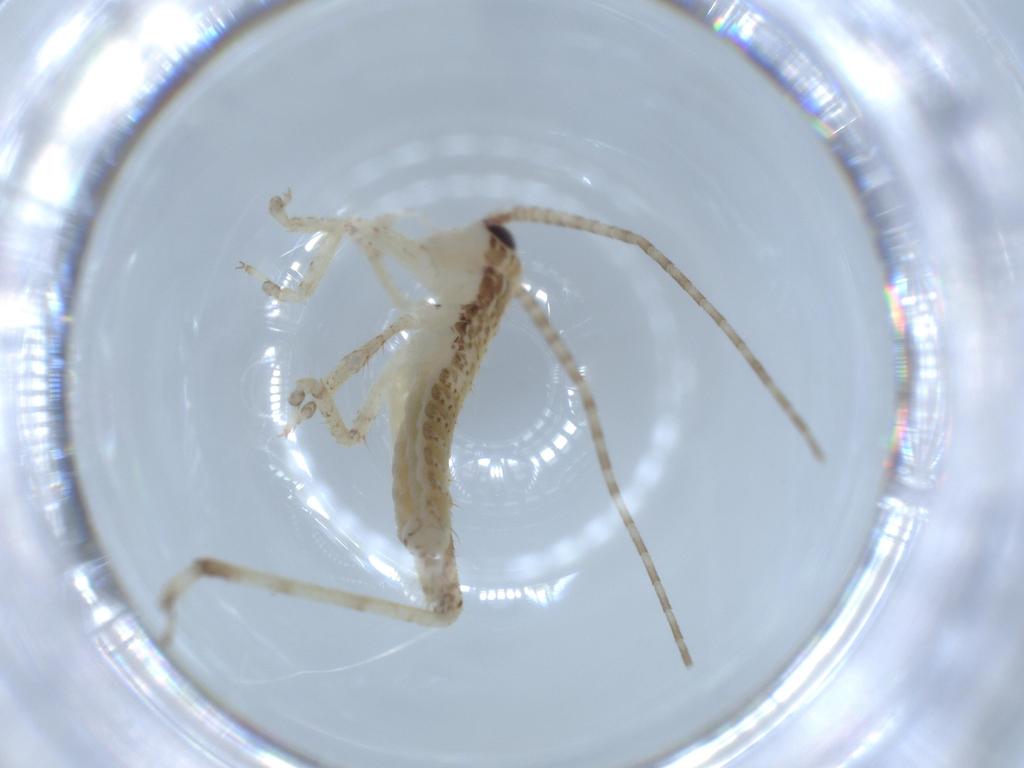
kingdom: Animalia
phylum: Arthropoda
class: Insecta
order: Orthoptera
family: Gryllidae
